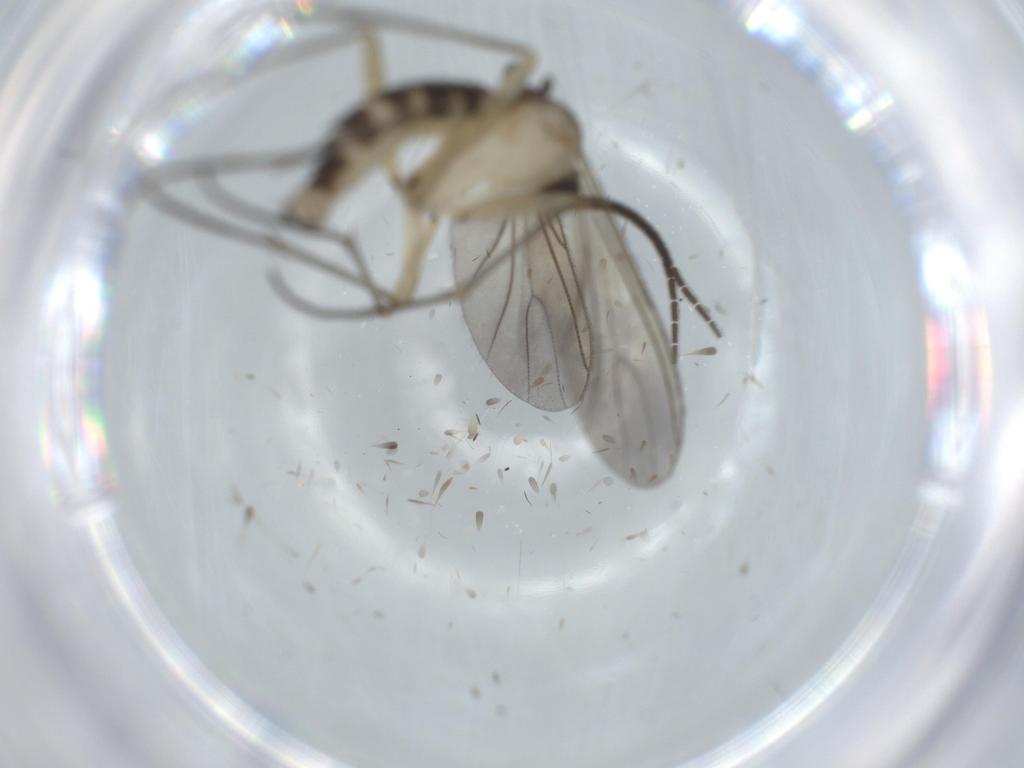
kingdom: Animalia
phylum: Arthropoda
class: Insecta
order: Diptera
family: Sciaridae
